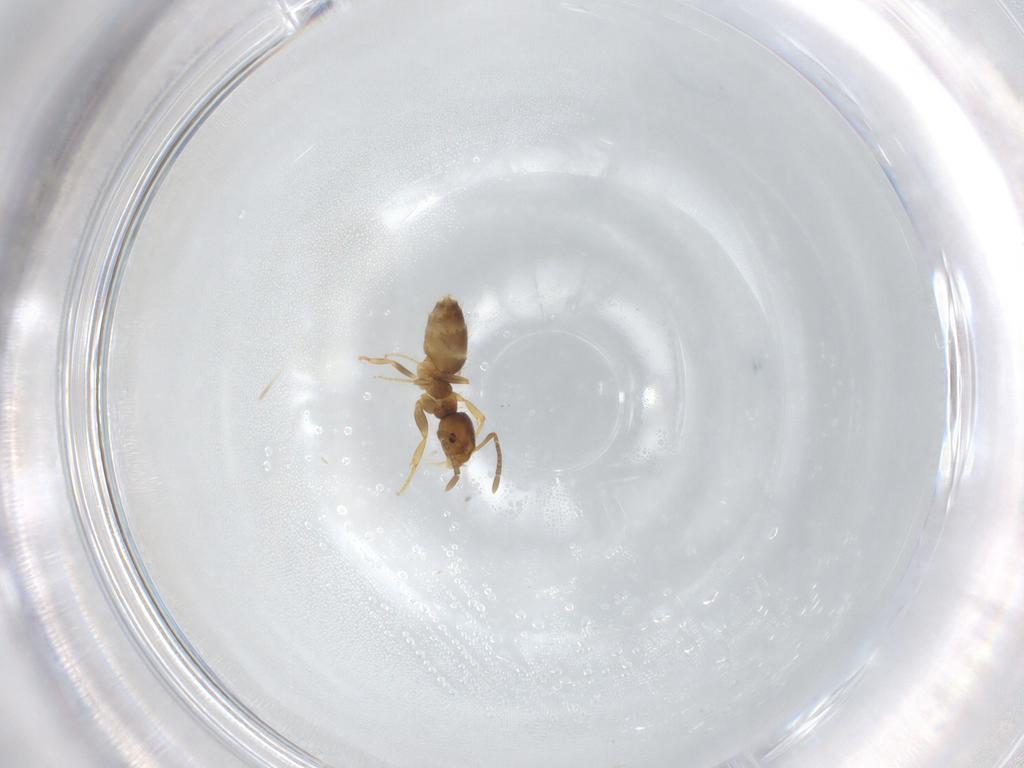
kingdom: Animalia
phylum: Arthropoda
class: Insecta
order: Hymenoptera
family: Formicidae
